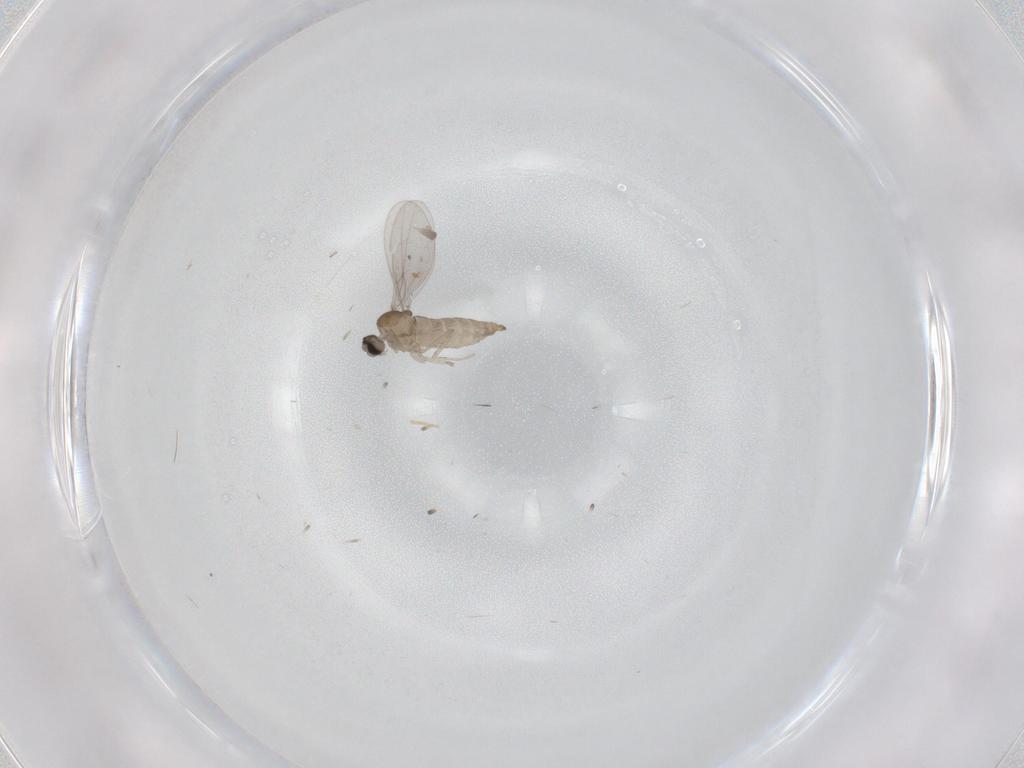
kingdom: Animalia
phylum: Arthropoda
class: Insecta
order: Diptera
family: Cecidomyiidae
